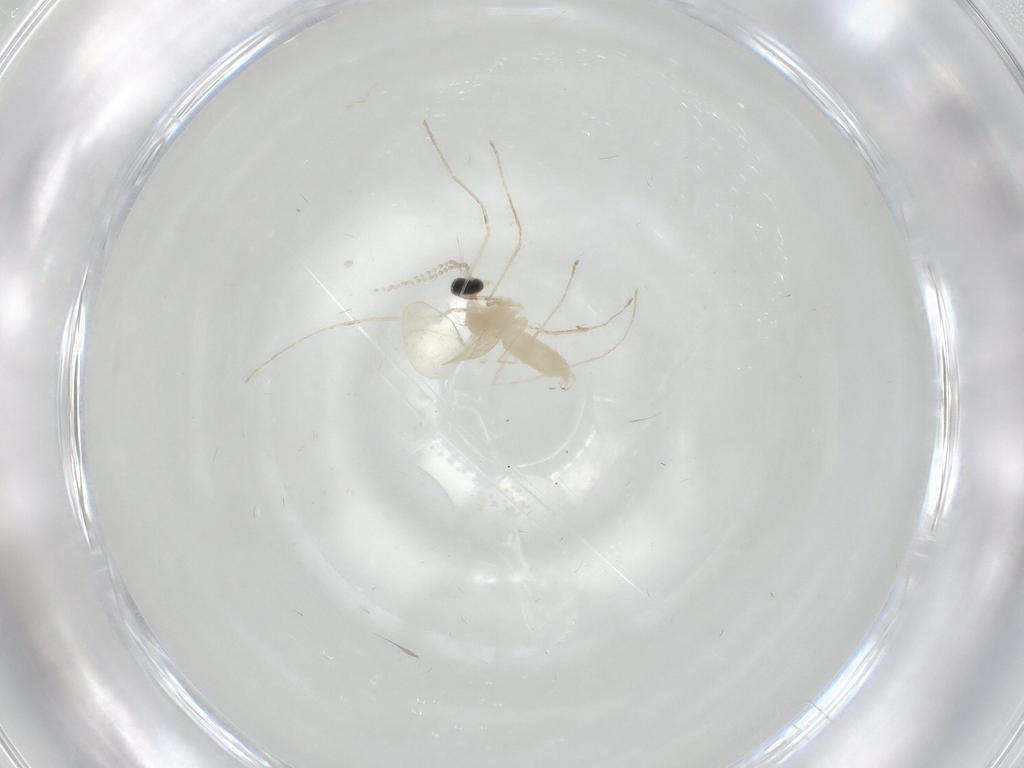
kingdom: Animalia
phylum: Arthropoda
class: Insecta
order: Diptera
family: Cecidomyiidae
